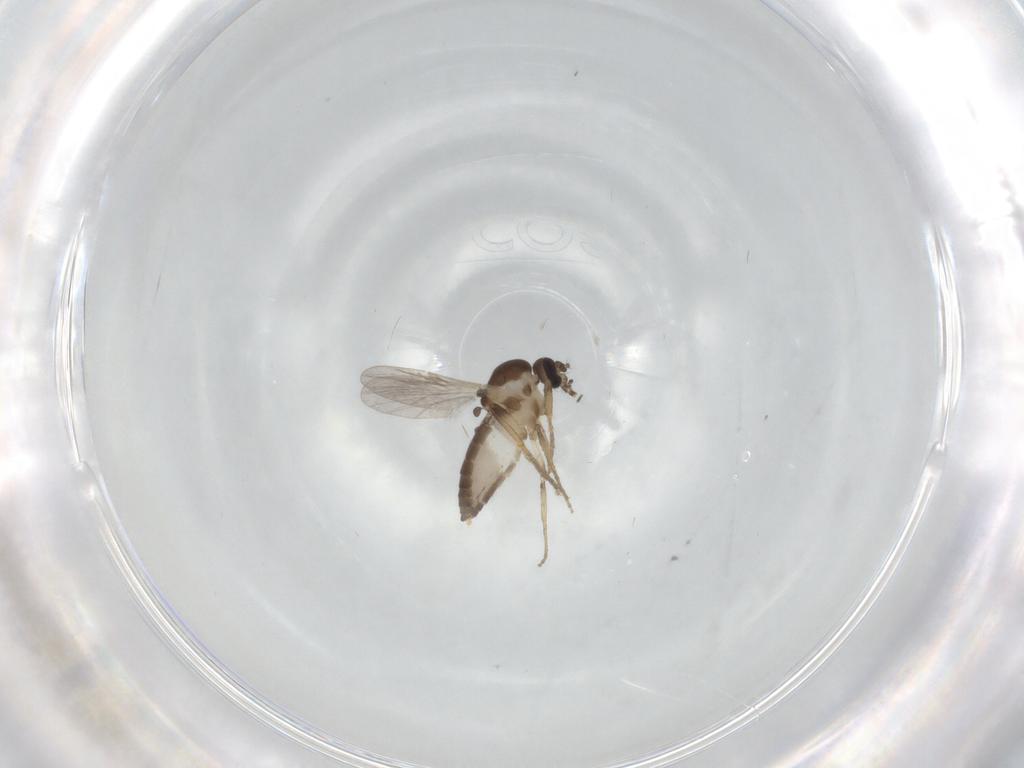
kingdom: Animalia
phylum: Arthropoda
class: Insecta
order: Diptera
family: Ceratopogonidae
